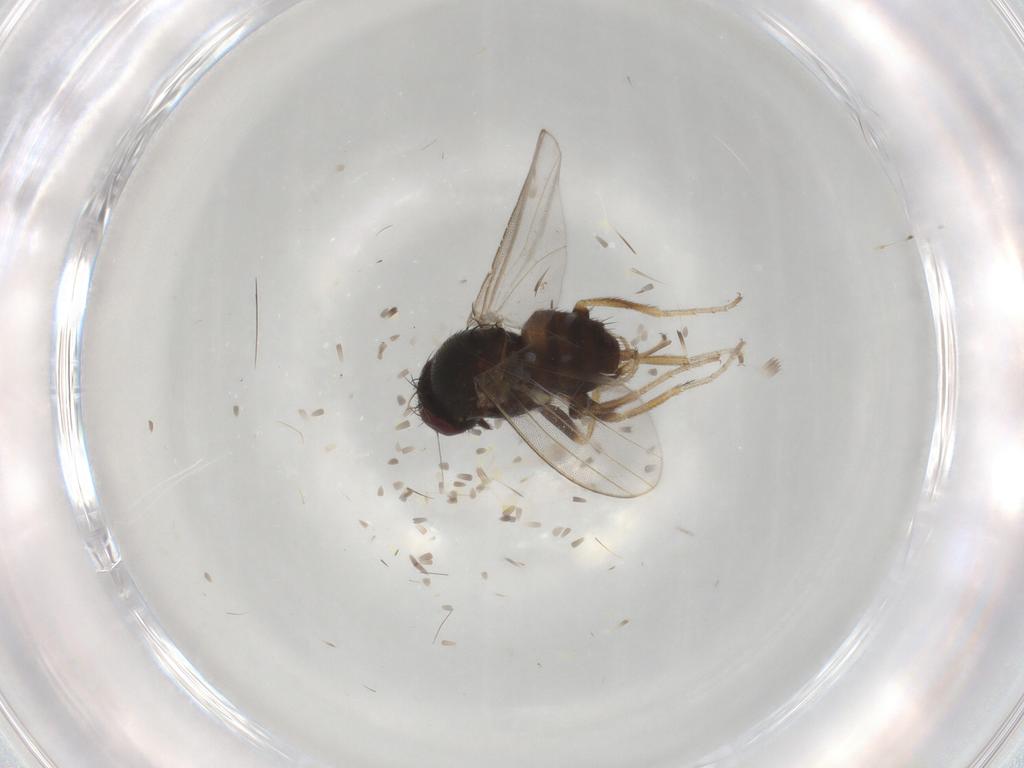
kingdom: Animalia
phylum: Arthropoda
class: Insecta
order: Diptera
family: Milichiidae
